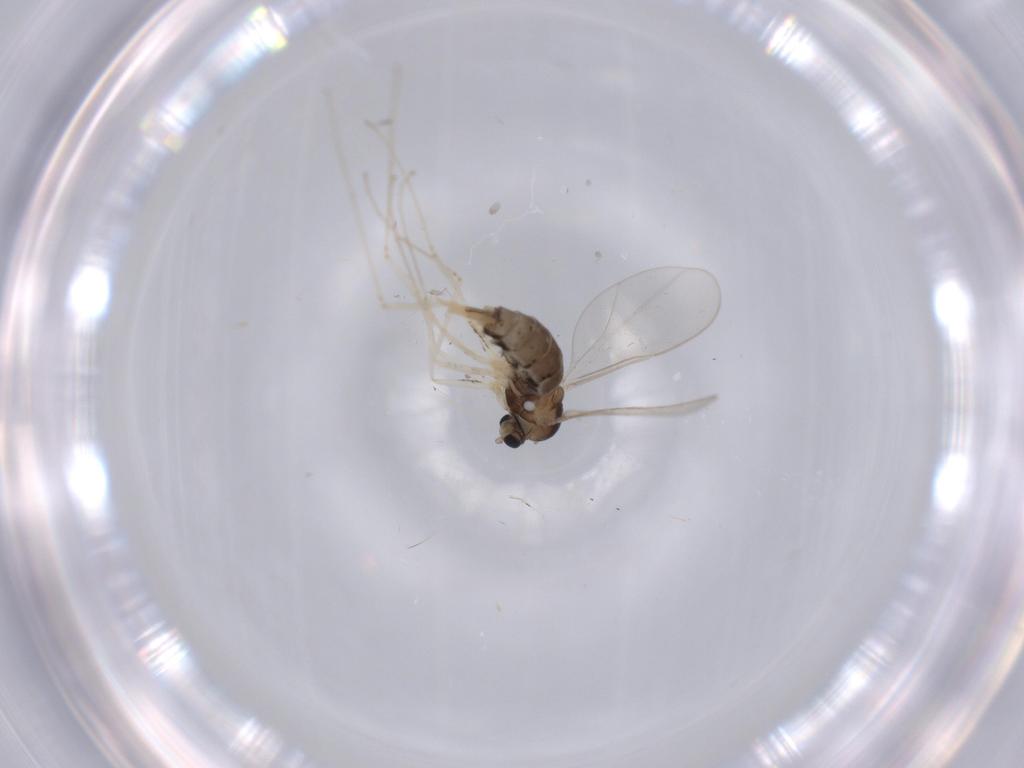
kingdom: Animalia
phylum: Arthropoda
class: Insecta
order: Diptera
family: Cecidomyiidae
